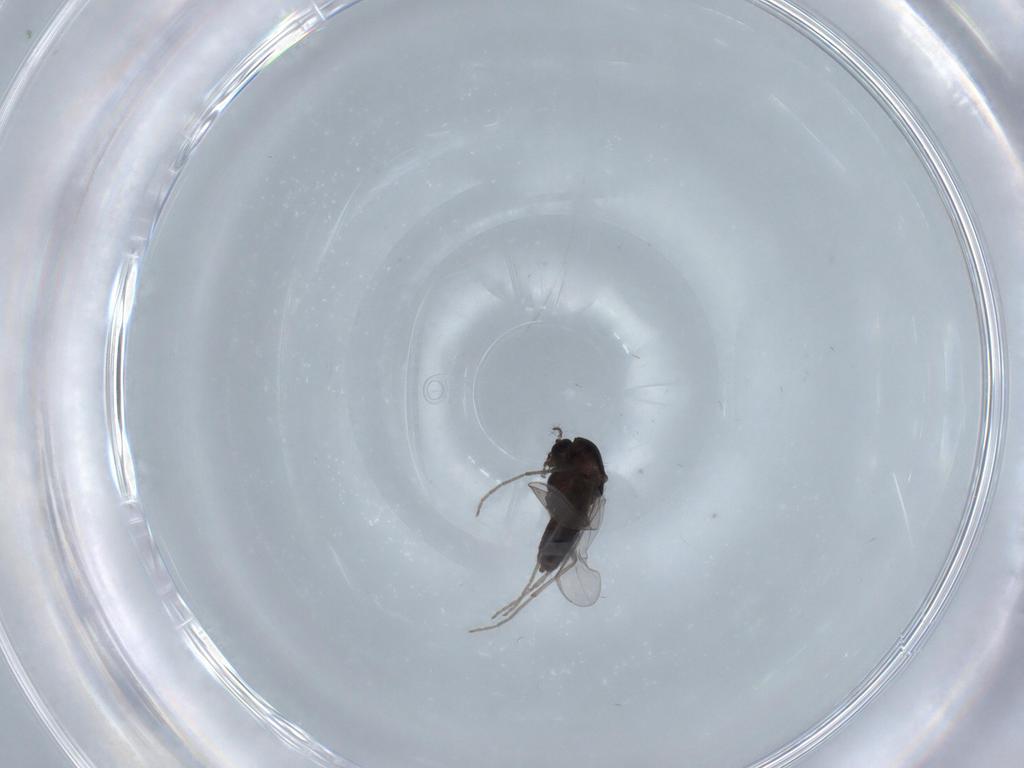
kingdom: Animalia
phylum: Arthropoda
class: Insecta
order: Diptera
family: Chironomidae
